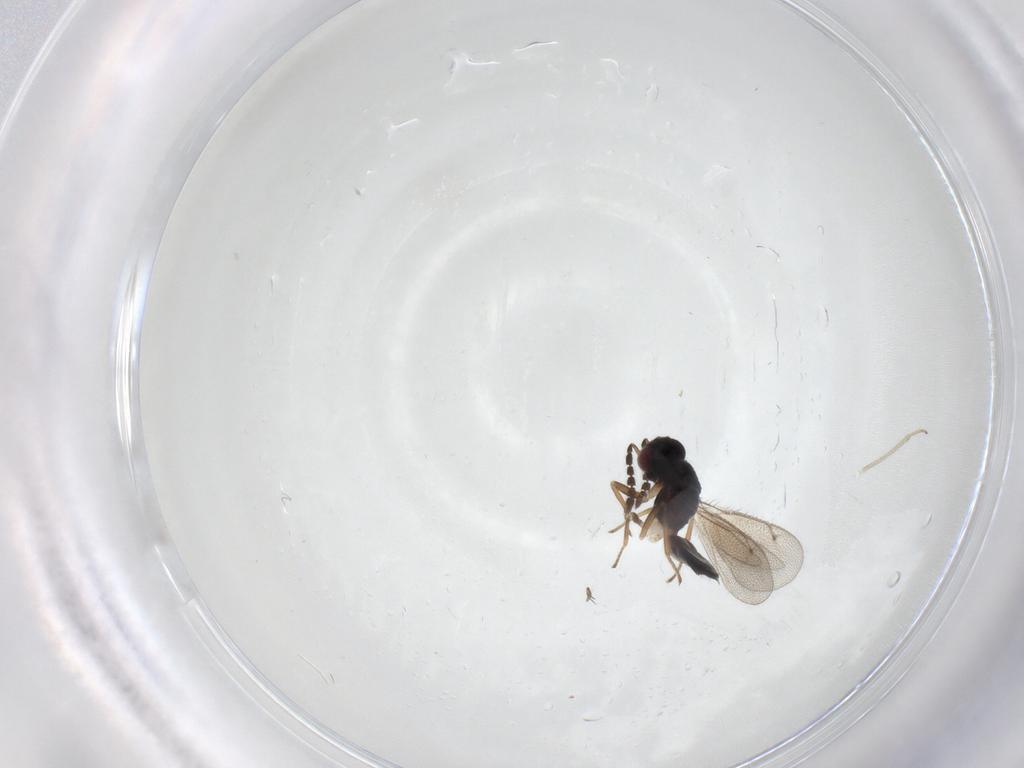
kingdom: Animalia
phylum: Arthropoda
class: Insecta
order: Hymenoptera
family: Eulophidae
